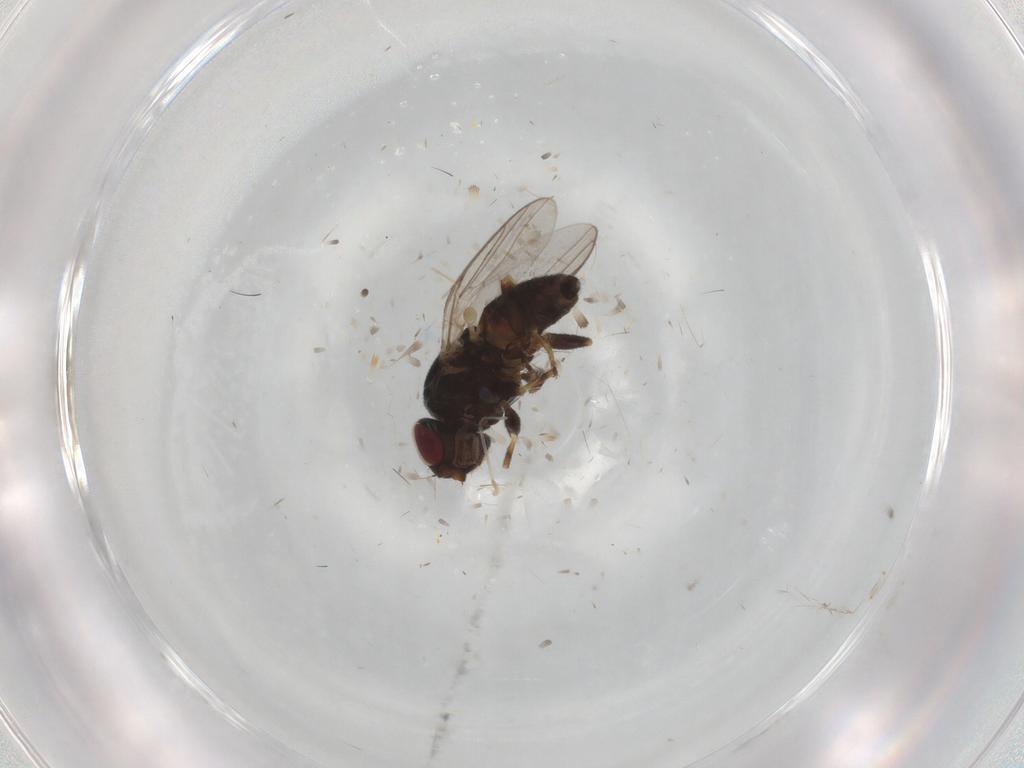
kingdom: Animalia
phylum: Arthropoda
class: Insecta
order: Diptera
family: Chloropidae
